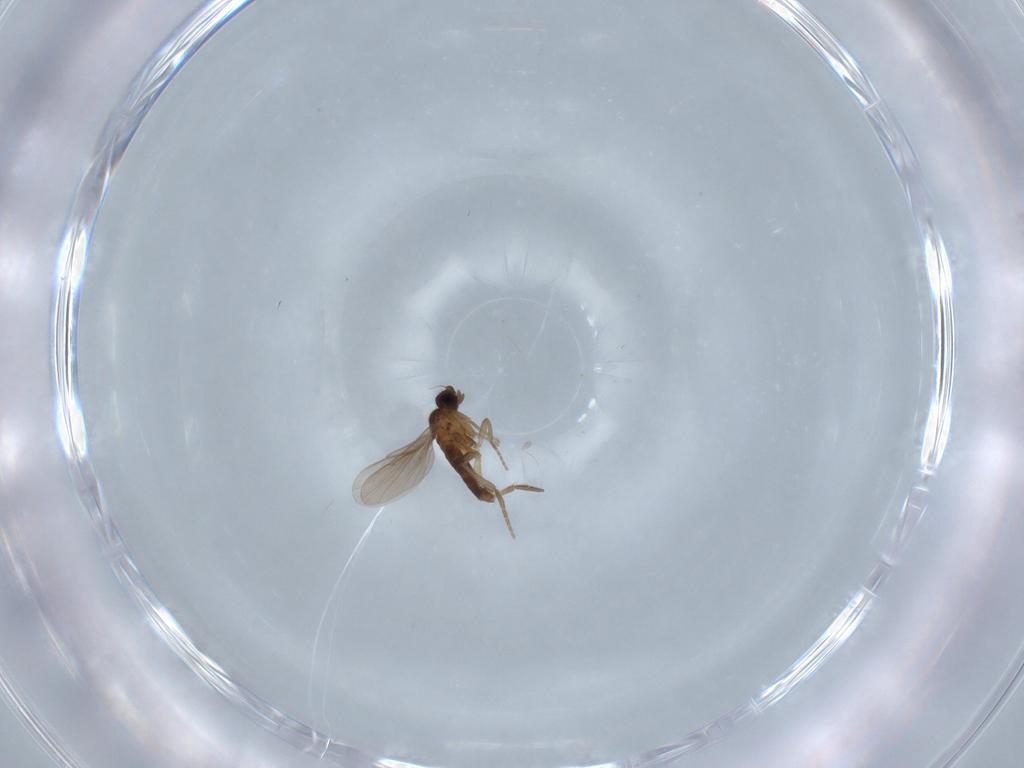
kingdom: Animalia
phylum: Arthropoda
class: Insecta
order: Diptera
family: Phoridae
